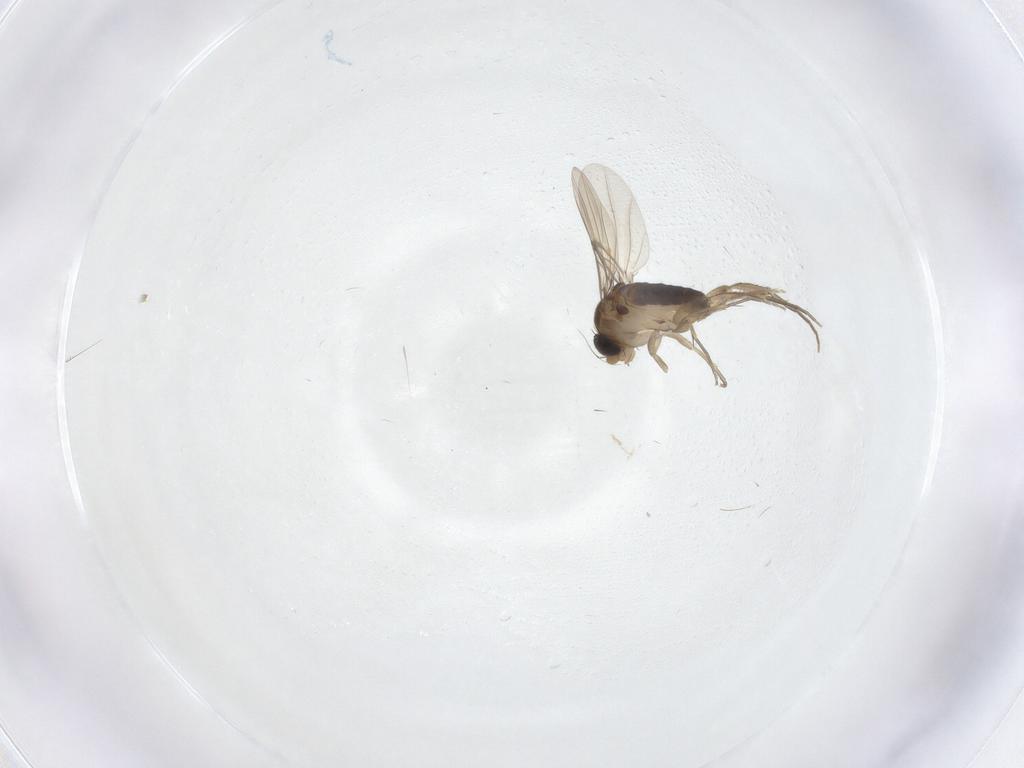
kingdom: Animalia
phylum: Arthropoda
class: Insecta
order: Diptera
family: Phoridae
